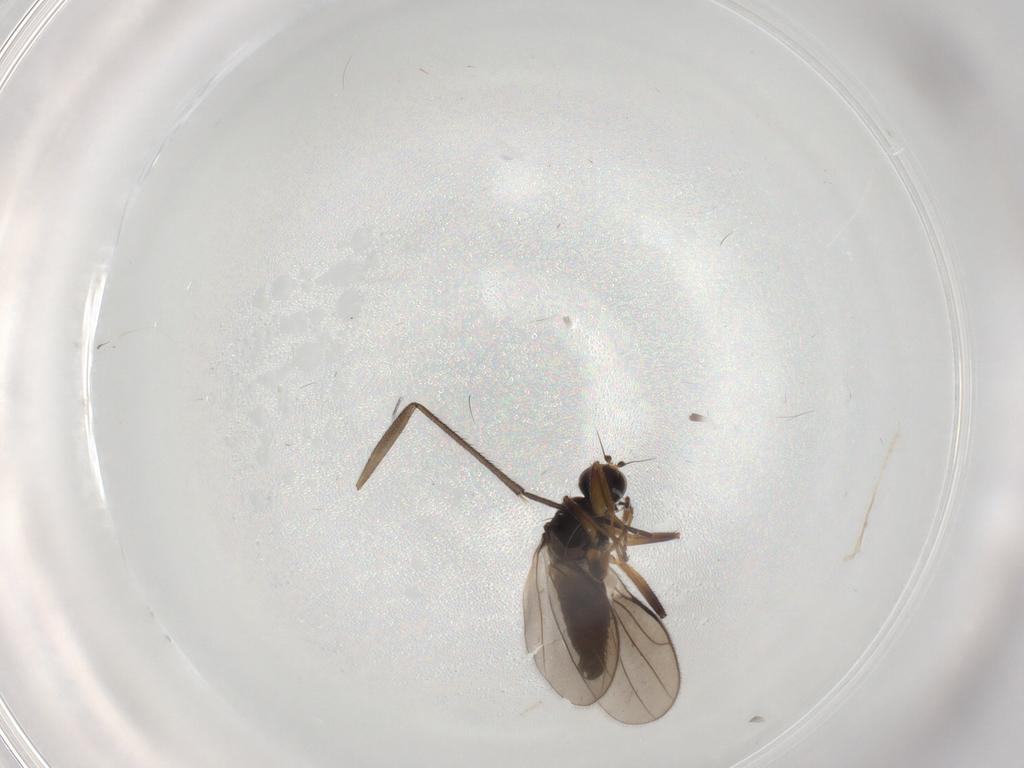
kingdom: Animalia
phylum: Arthropoda
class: Insecta
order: Diptera
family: Hybotidae
